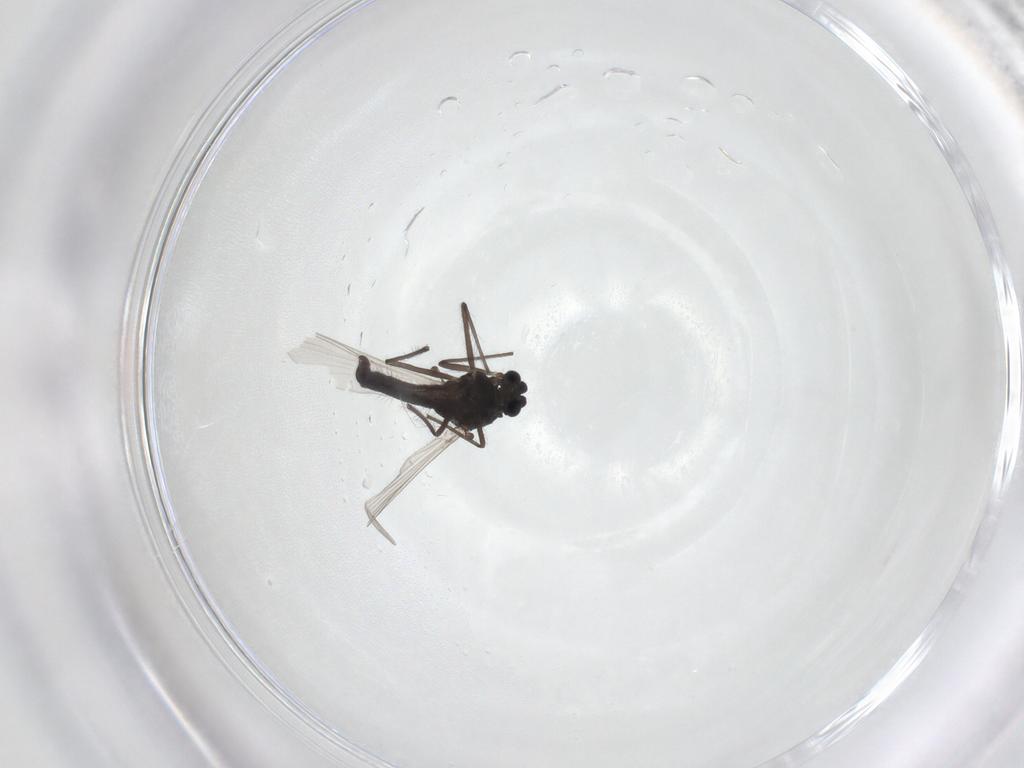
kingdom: Animalia
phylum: Arthropoda
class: Insecta
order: Diptera
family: Chironomidae
